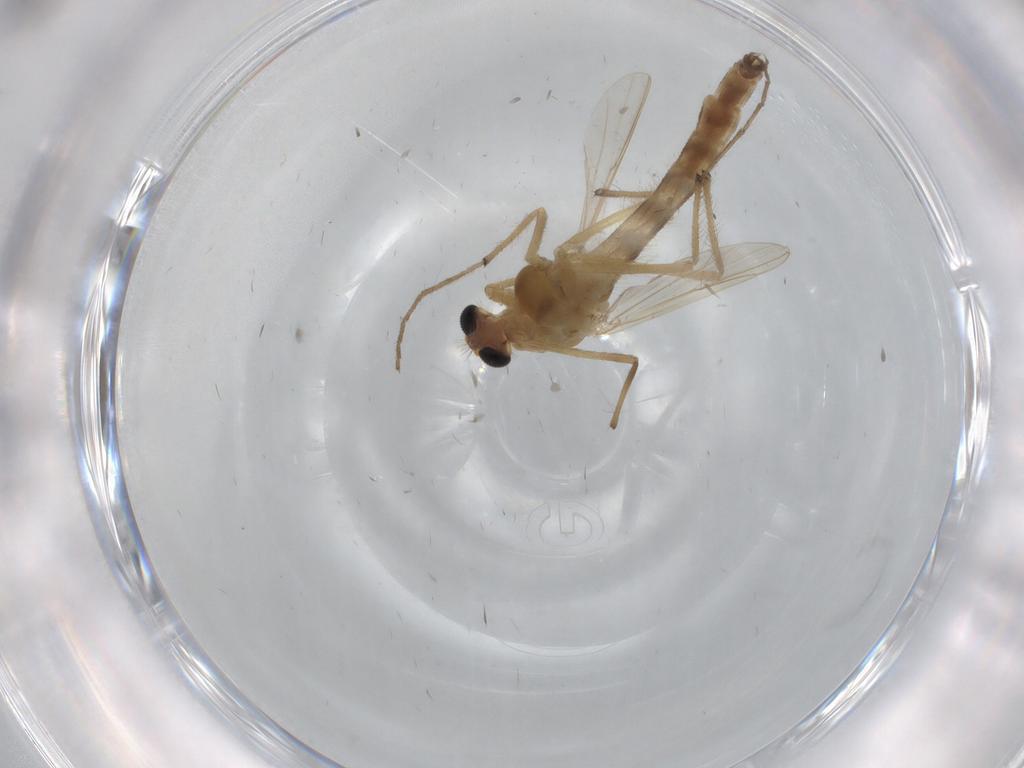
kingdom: Animalia
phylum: Arthropoda
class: Insecta
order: Diptera
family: Chironomidae
